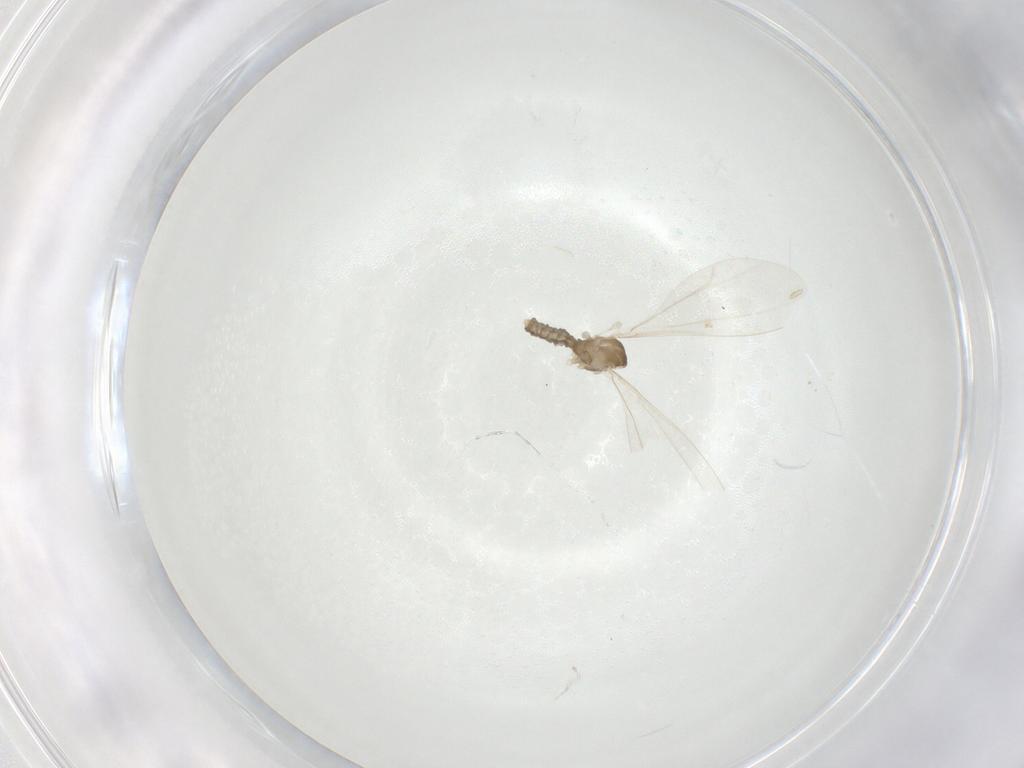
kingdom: Animalia
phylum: Arthropoda
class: Insecta
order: Diptera
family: Cecidomyiidae
